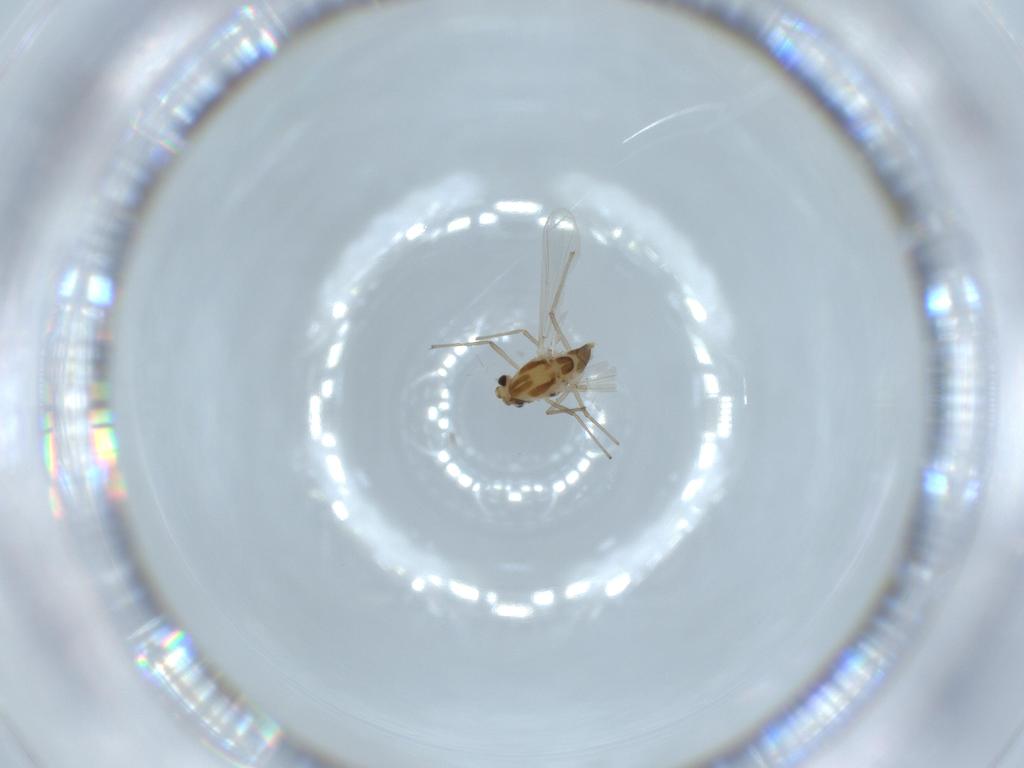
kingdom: Animalia
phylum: Arthropoda
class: Insecta
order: Diptera
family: Chironomidae
